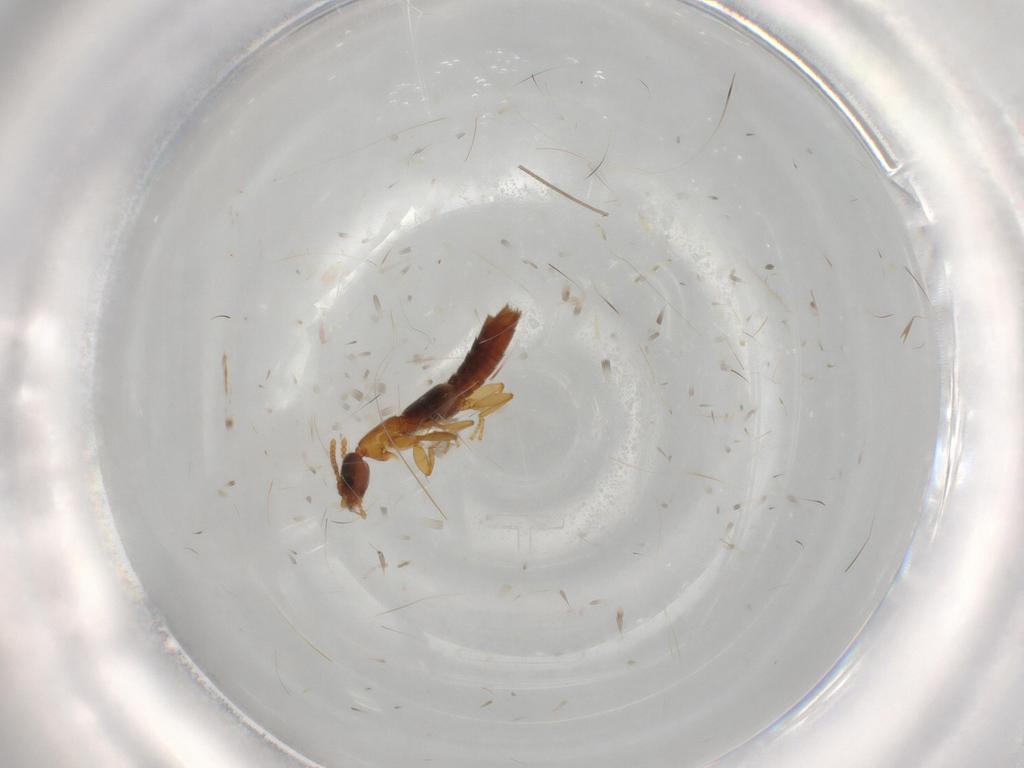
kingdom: Animalia
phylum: Arthropoda
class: Insecta
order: Coleoptera
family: Staphylinidae
